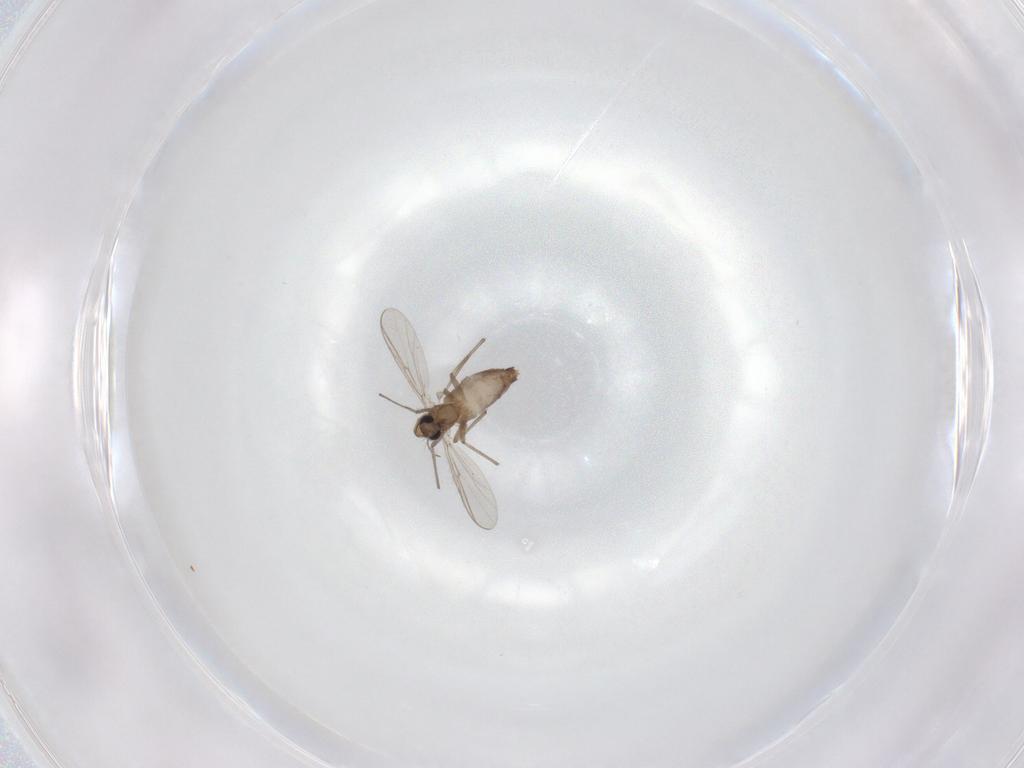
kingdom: Animalia
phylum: Arthropoda
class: Insecta
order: Diptera
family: Chironomidae
